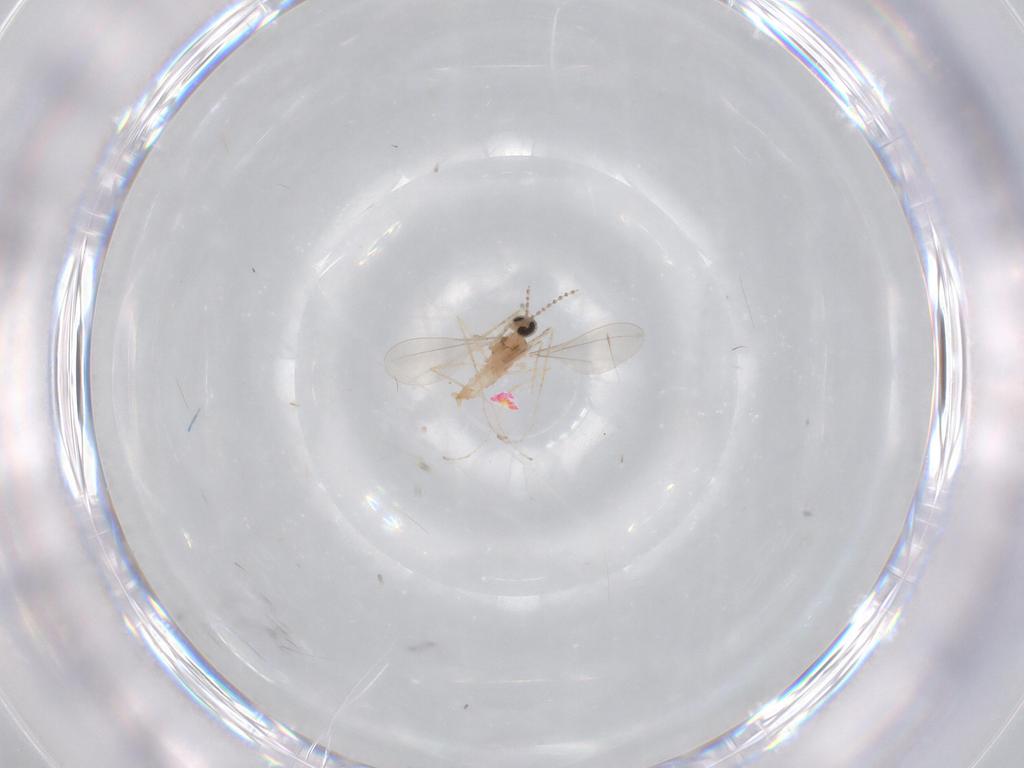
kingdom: Animalia
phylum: Arthropoda
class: Insecta
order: Diptera
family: Cecidomyiidae
